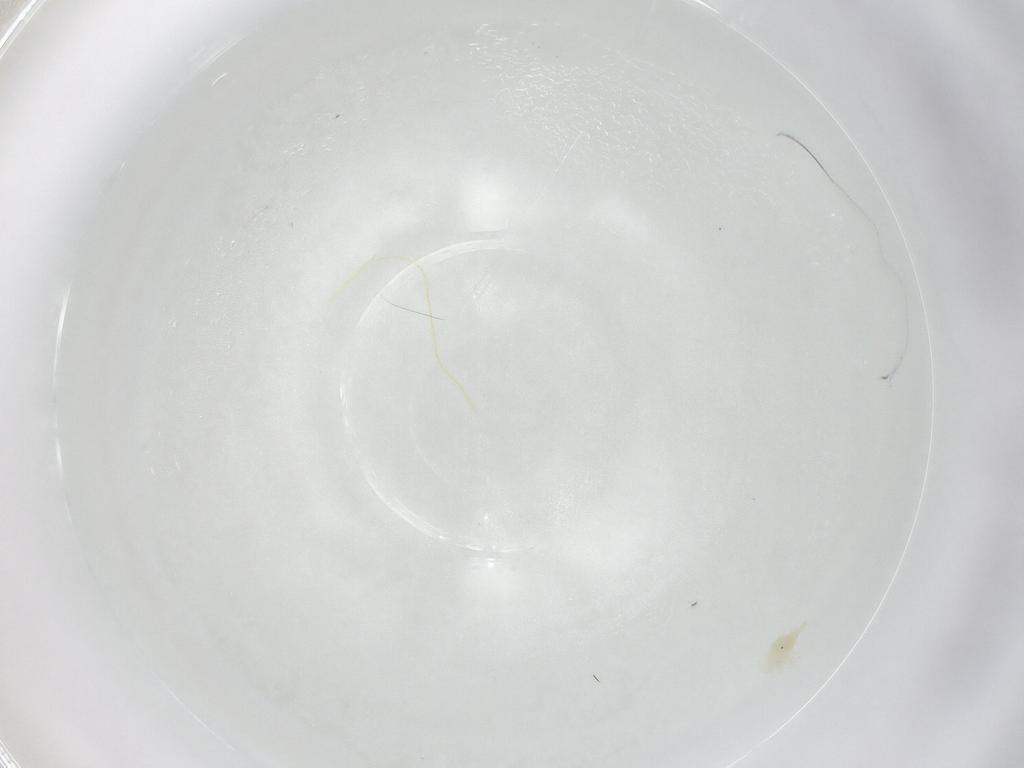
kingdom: Animalia
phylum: Arthropoda
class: Arachnida
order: Trombidiformes
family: Anystidae
